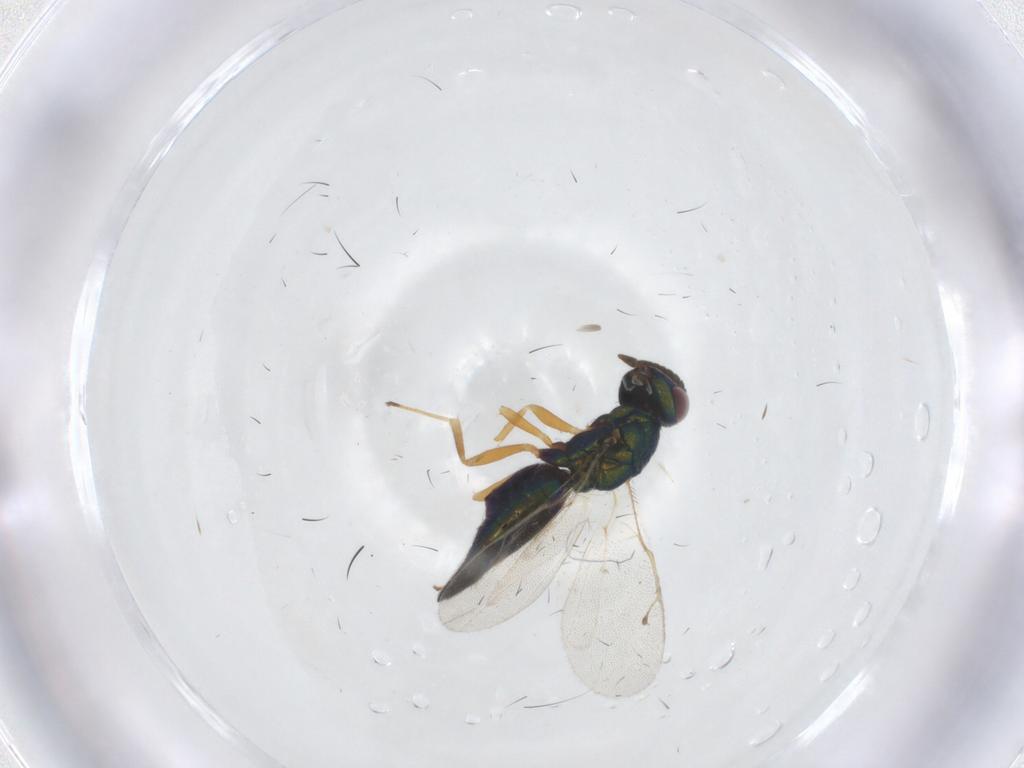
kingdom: Animalia
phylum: Arthropoda
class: Insecta
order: Hymenoptera
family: Pteromalidae
